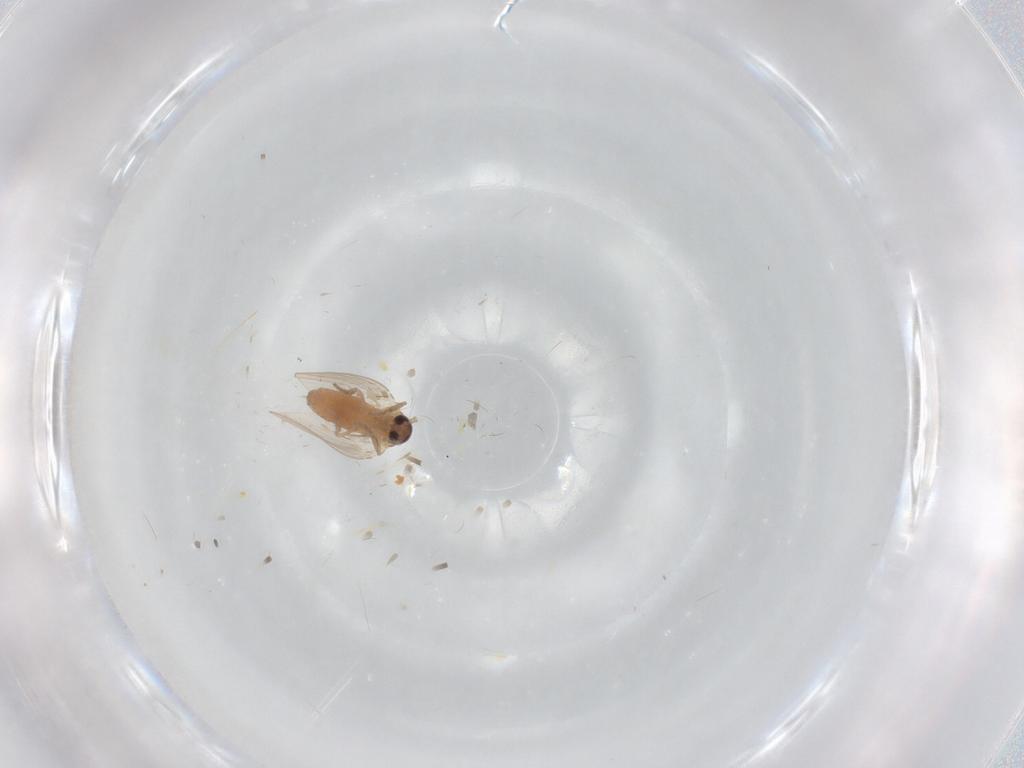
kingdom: Animalia
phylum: Arthropoda
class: Insecta
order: Diptera
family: Psychodidae
